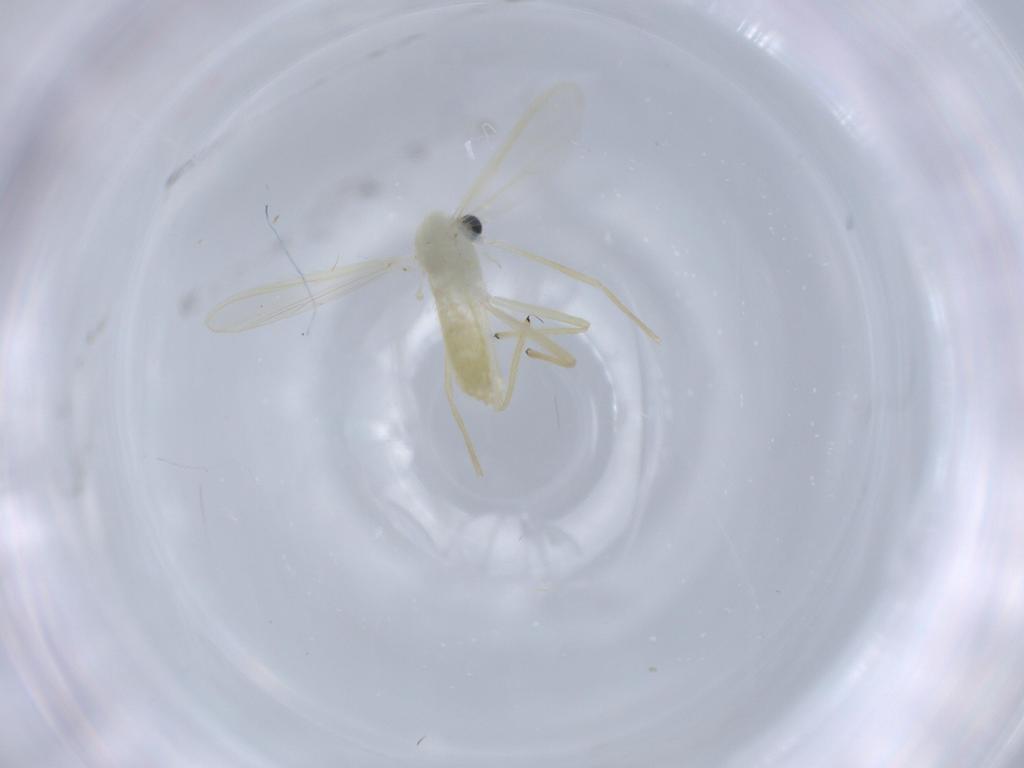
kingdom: Animalia
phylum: Arthropoda
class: Insecta
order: Diptera
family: Chironomidae
